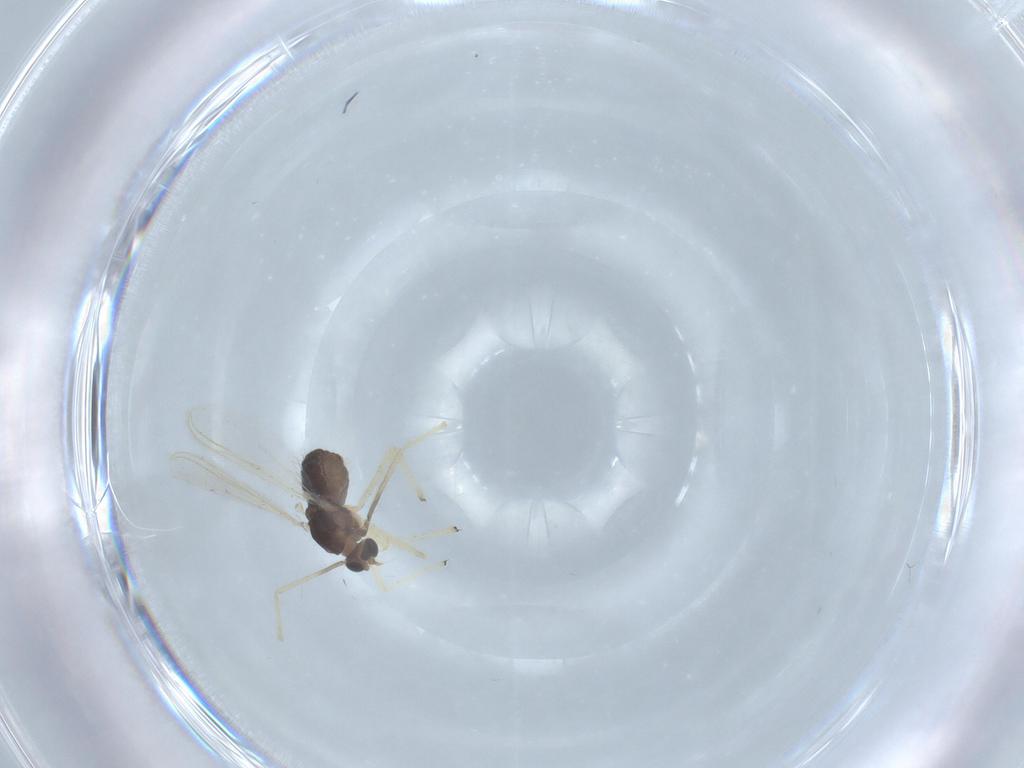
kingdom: Animalia
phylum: Arthropoda
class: Insecta
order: Diptera
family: Chironomidae
